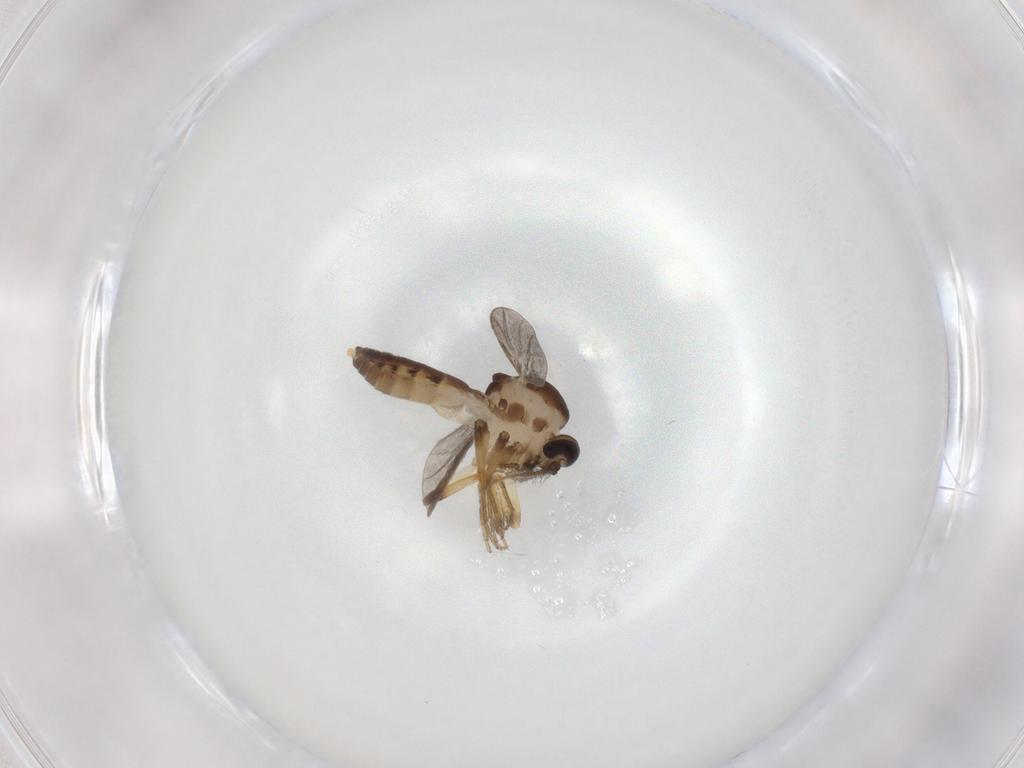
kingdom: Animalia
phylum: Arthropoda
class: Insecta
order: Diptera
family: Ceratopogonidae
